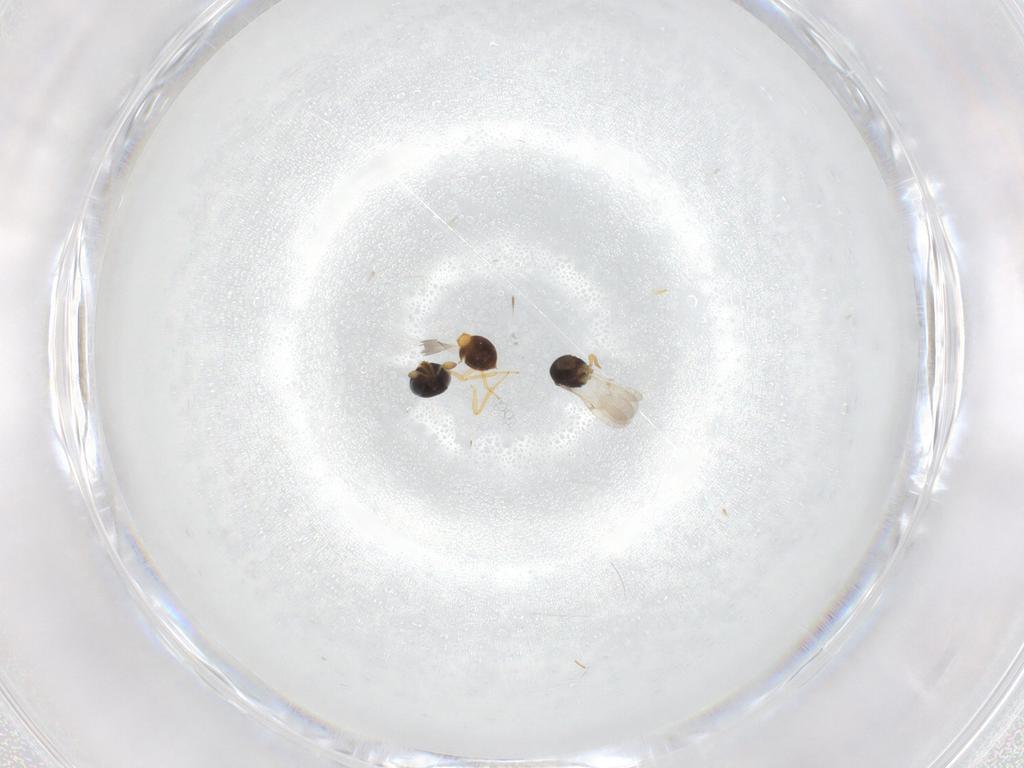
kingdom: Animalia
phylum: Arthropoda
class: Insecta
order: Hymenoptera
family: Scelionidae
